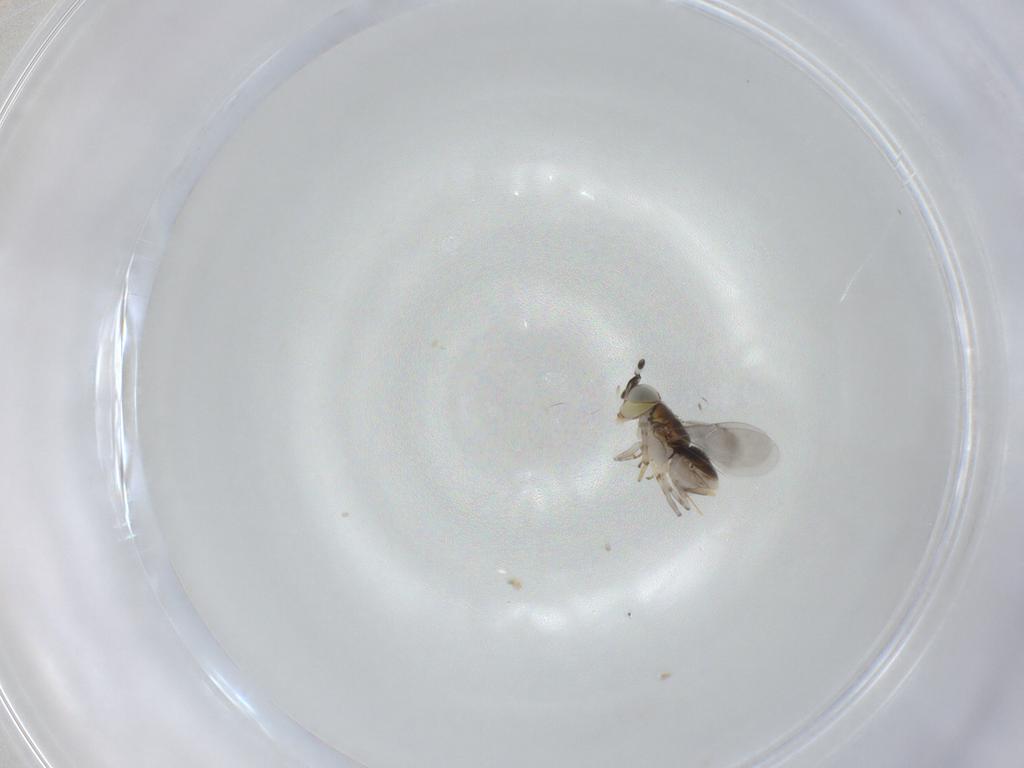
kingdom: Animalia
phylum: Arthropoda
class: Insecta
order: Hymenoptera
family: Encyrtidae
